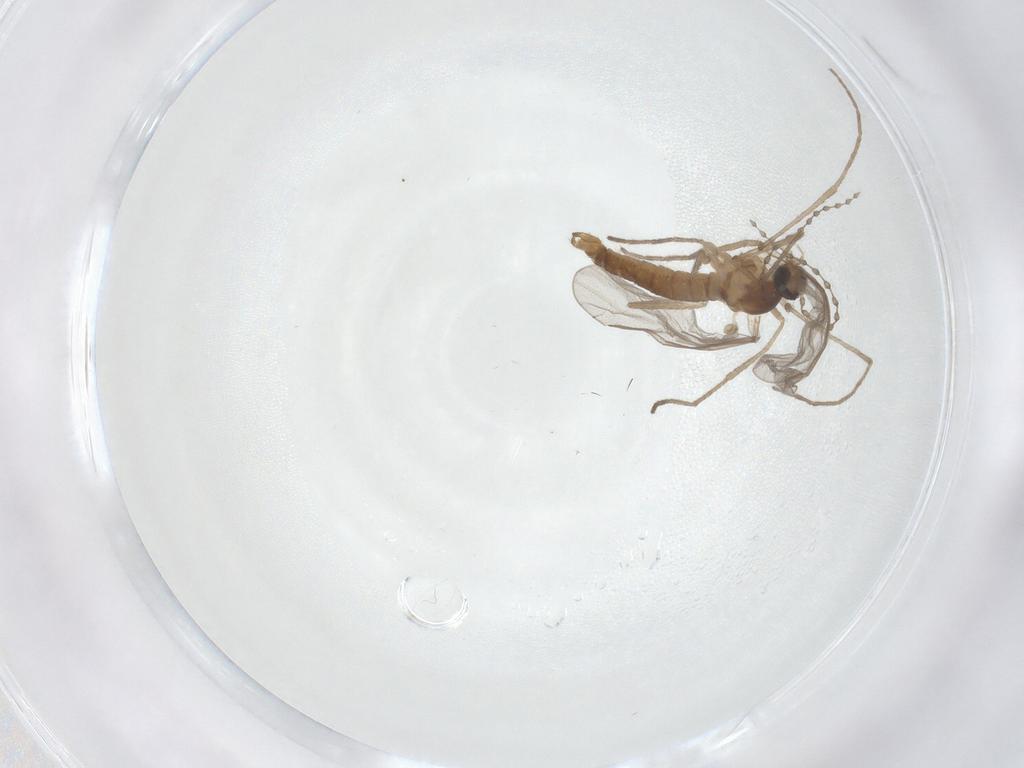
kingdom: Animalia
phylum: Arthropoda
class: Insecta
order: Diptera
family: Cecidomyiidae
